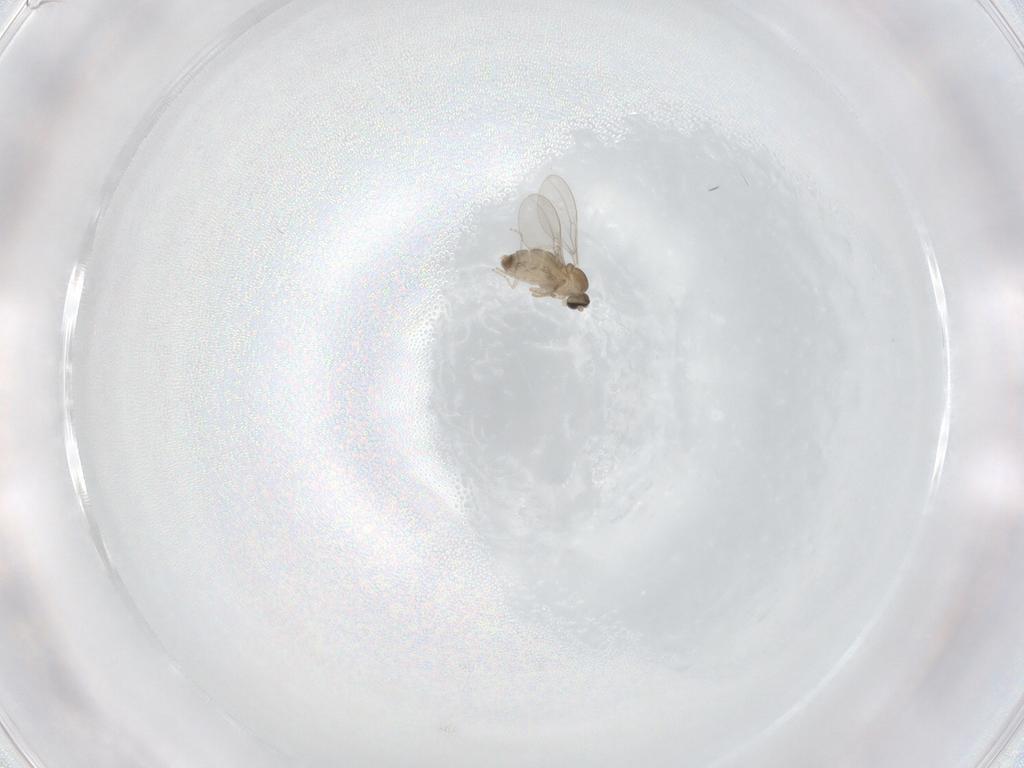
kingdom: Animalia
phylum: Arthropoda
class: Insecta
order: Diptera
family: Cecidomyiidae
